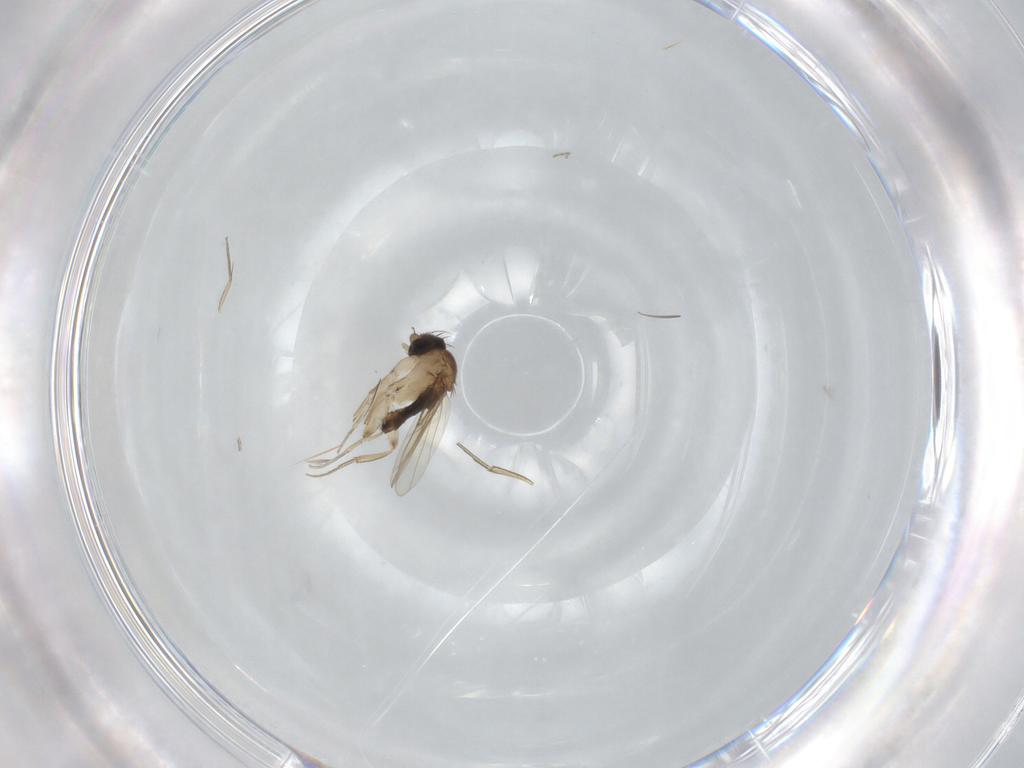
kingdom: Animalia
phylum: Arthropoda
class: Insecta
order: Diptera
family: Phoridae
